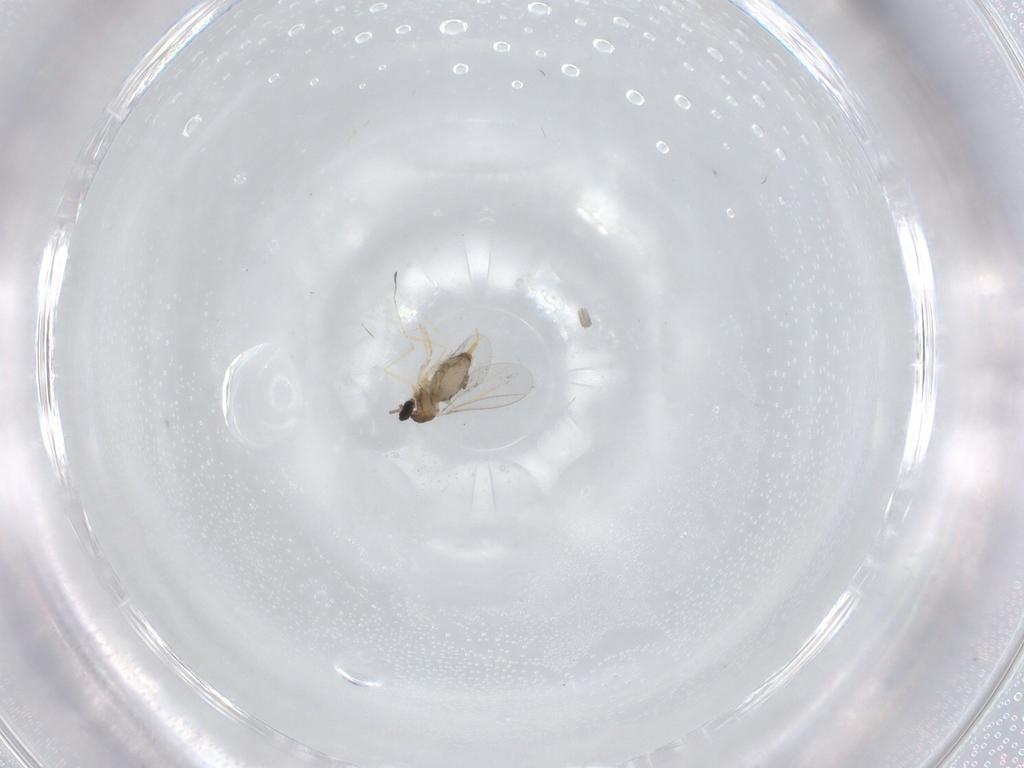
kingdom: Animalia
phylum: Arthropoda
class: Insecta
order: Diptera
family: Cecidomyiidae
